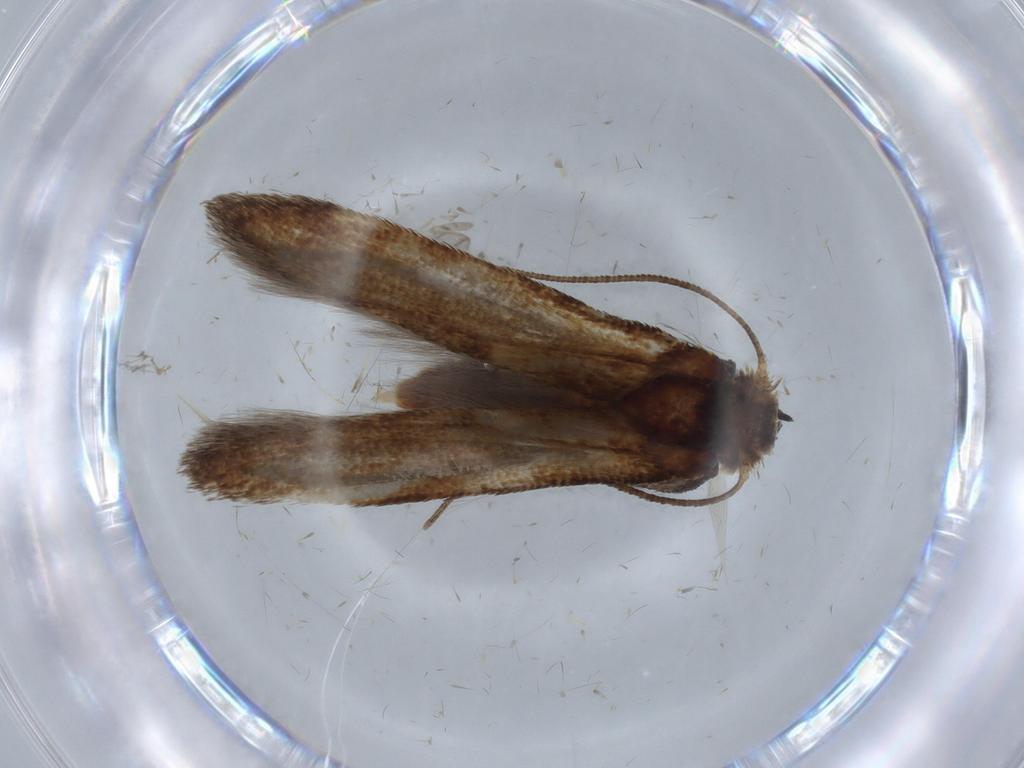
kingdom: Animalia
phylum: Arthropoda
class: Insecta
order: Lepidoptera
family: Blastobasidae
